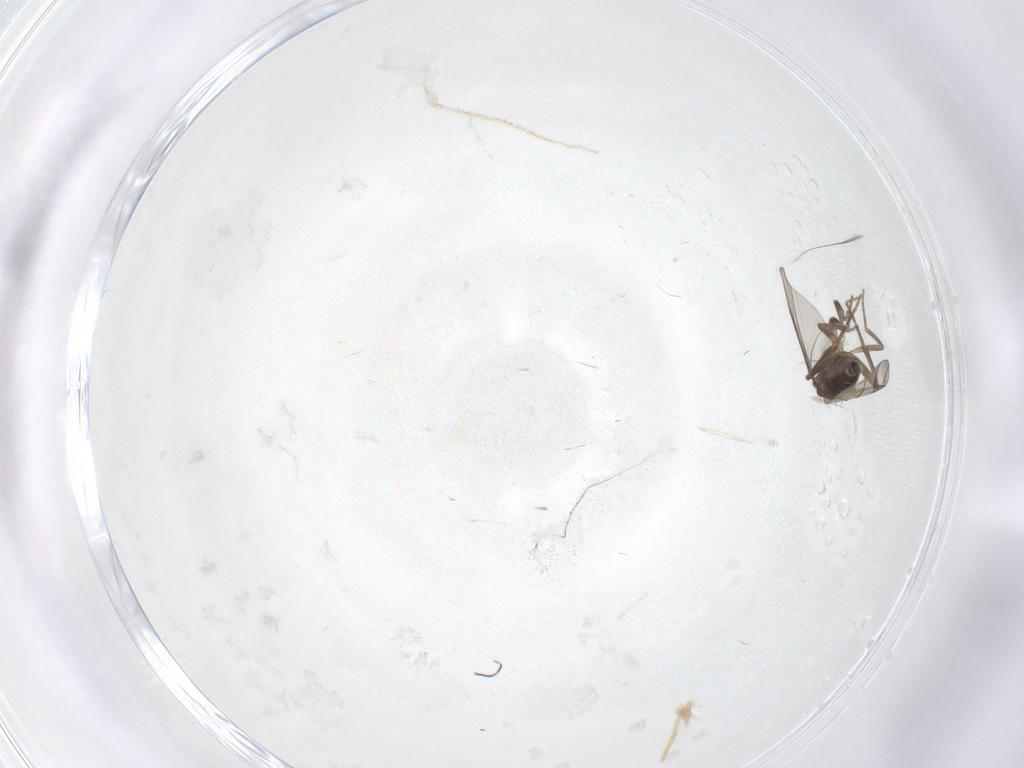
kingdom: Animalia
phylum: Arthropoda
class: Insecta
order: Diptera
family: Cecidomyiidae
